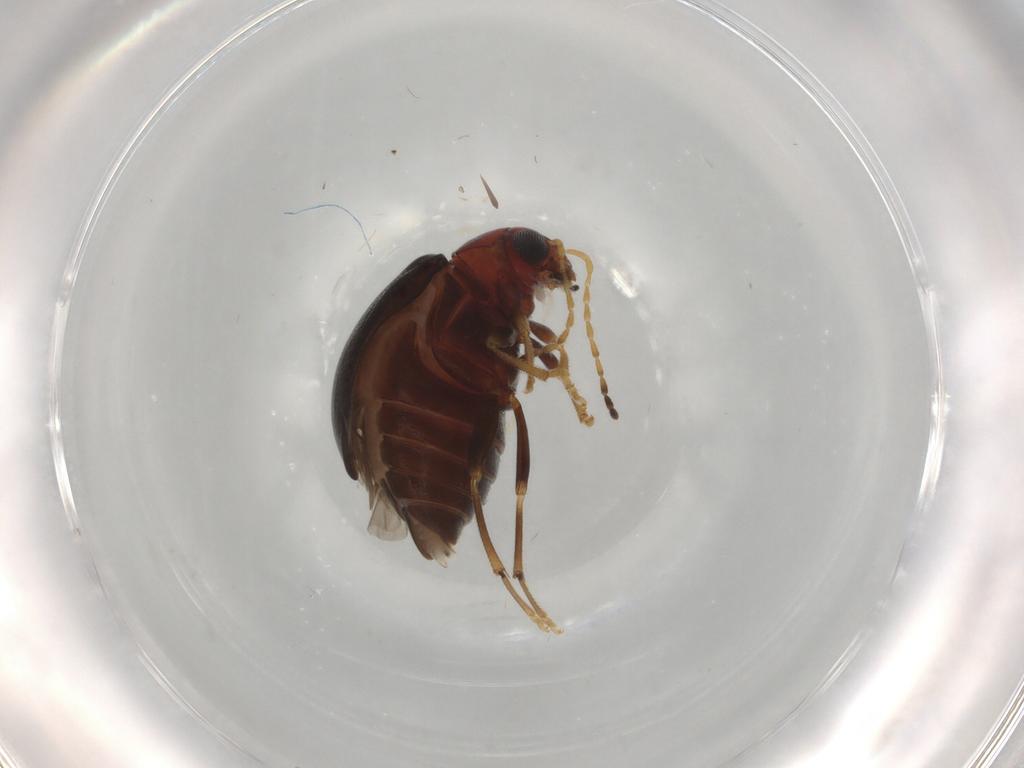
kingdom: Animalia
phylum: Arthropoda
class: Insecta
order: Coleoptera
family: Chrysomelidae
